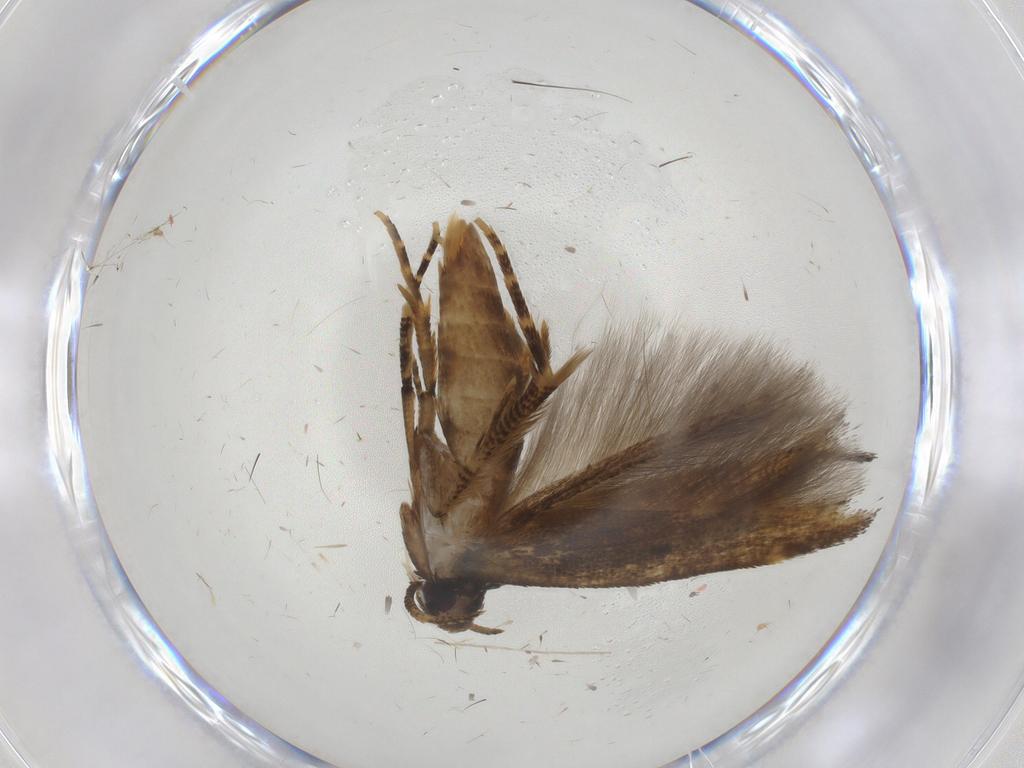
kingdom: Animalia
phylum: Arthropoda
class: Insecta
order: Lepidoptera
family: Cosmopterigidae
